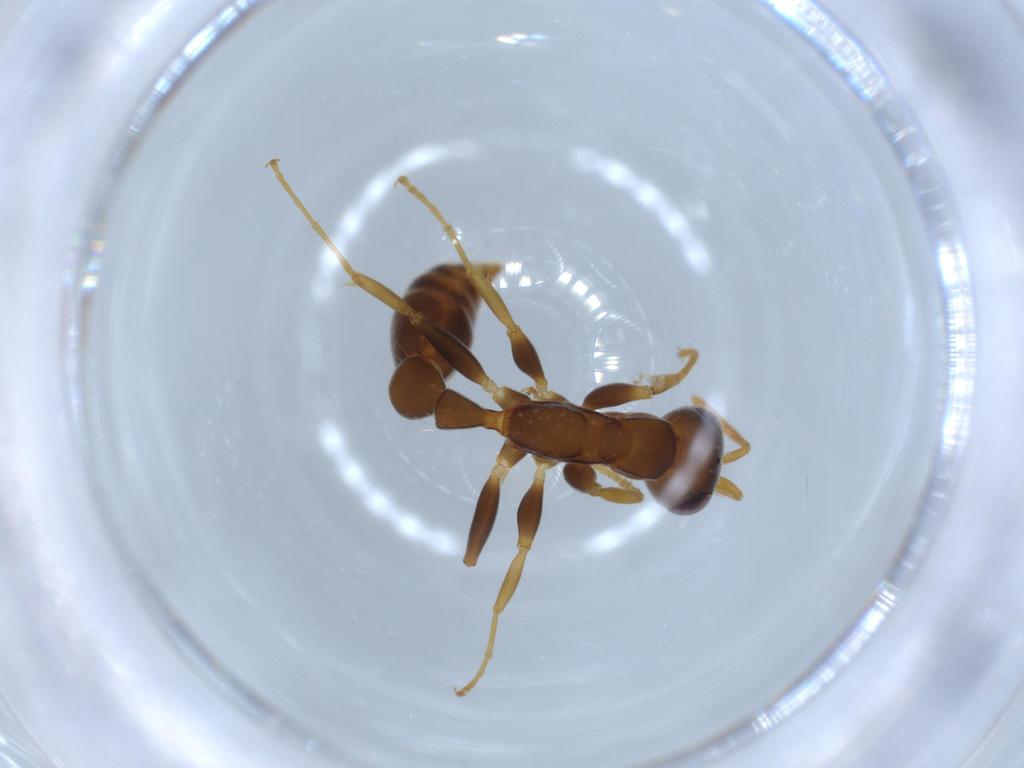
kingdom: Animalia
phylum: Arthropoda
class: Insecta
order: Hymenoptera
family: Formicidae
